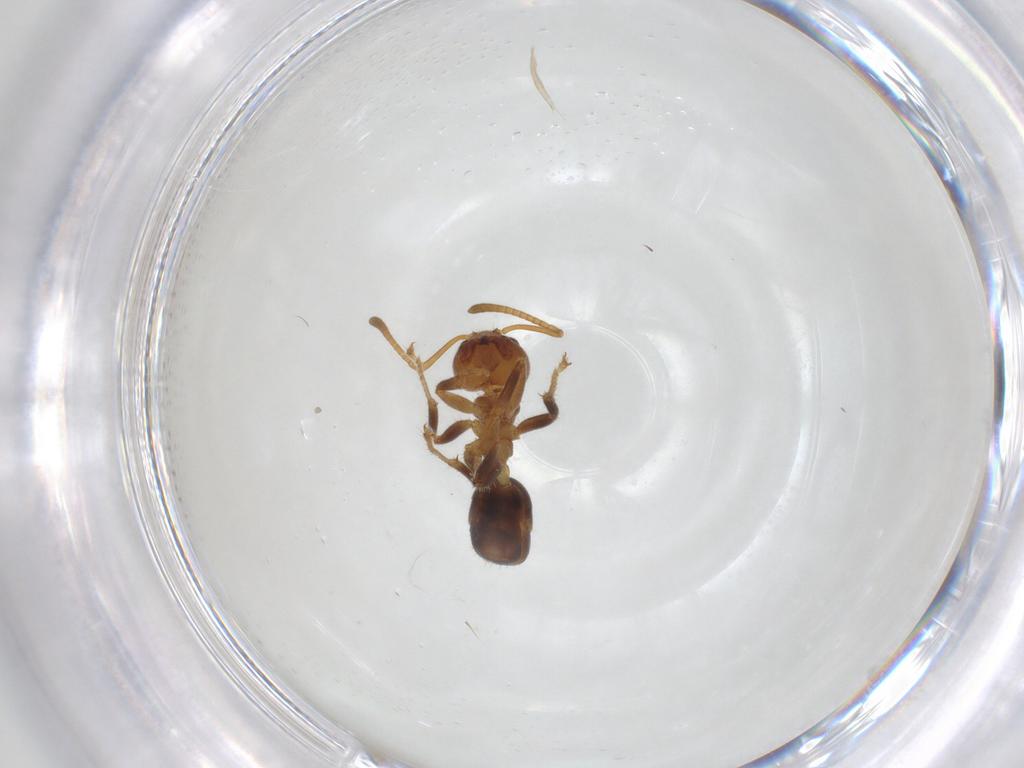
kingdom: Animalia
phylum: Arthropoda
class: Insecta
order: Hymenoptera
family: Formicidae
